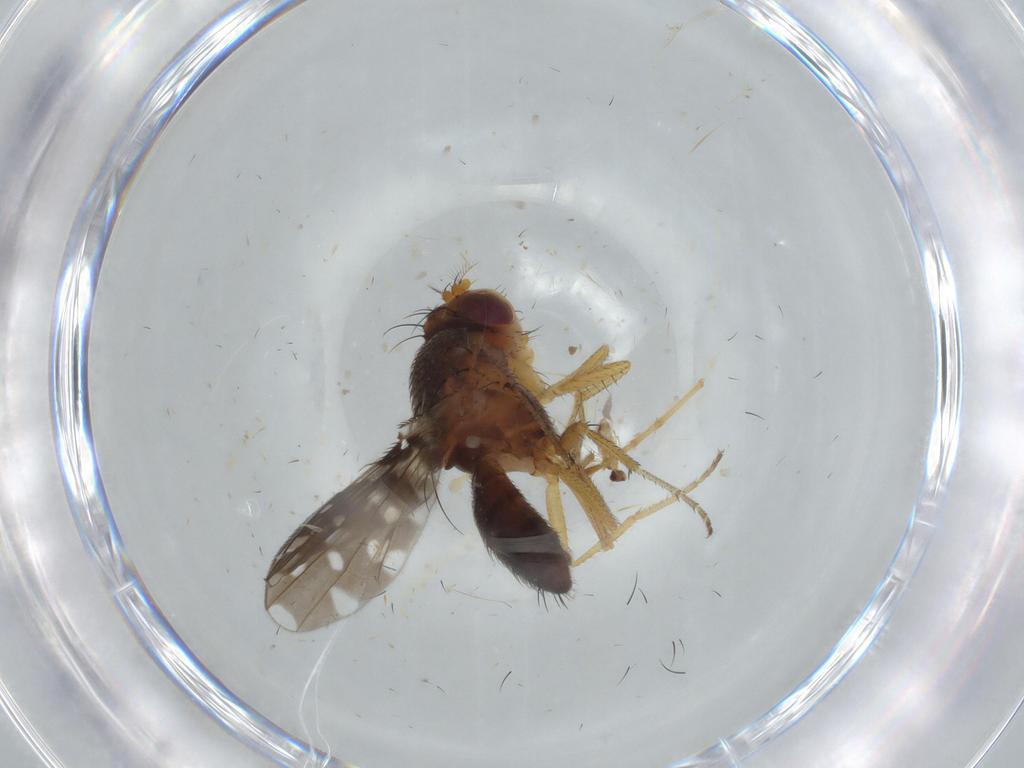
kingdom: Animalia
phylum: Arthropoda
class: Insecta
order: Diptera
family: Ephydridae
